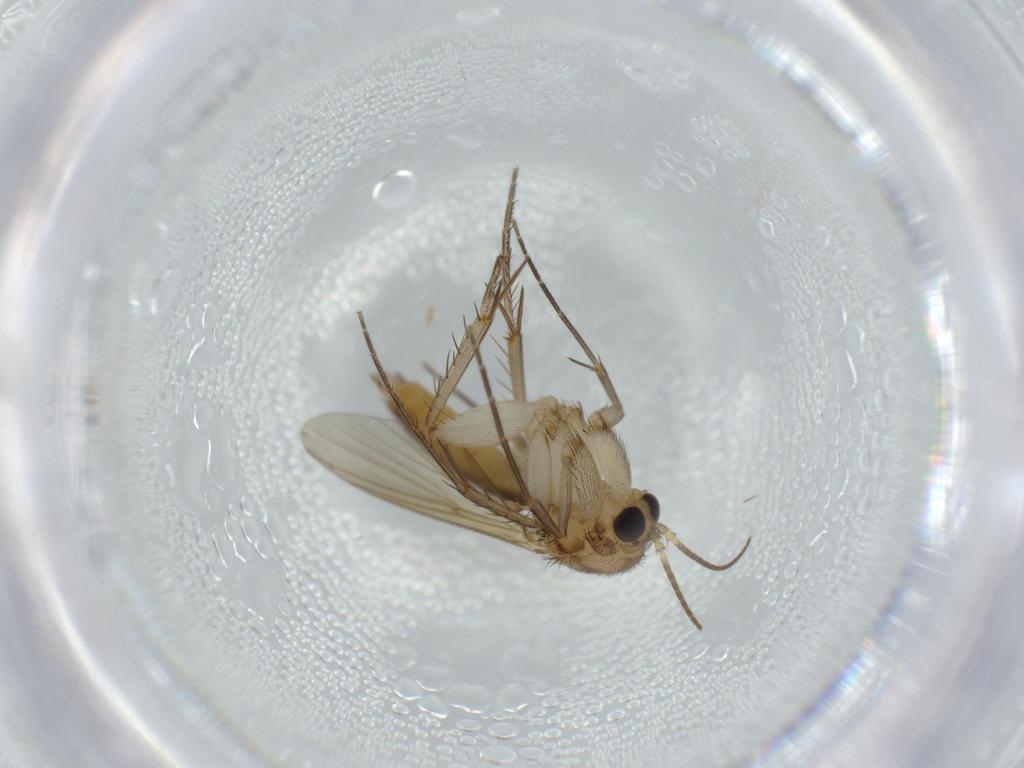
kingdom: Animalia
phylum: Arthropoda
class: Insecta
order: Diptera
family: Mycetophilidae
